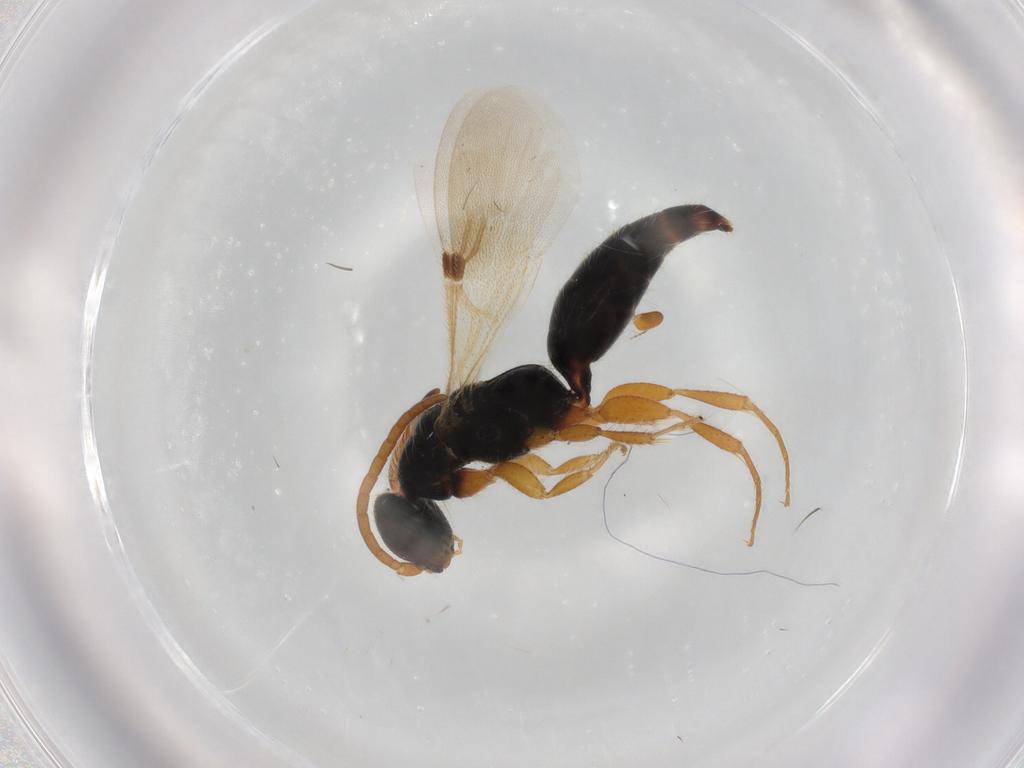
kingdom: Animalia
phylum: Arthropoda
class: Insecta
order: Hymenoptera
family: Bethylidae
